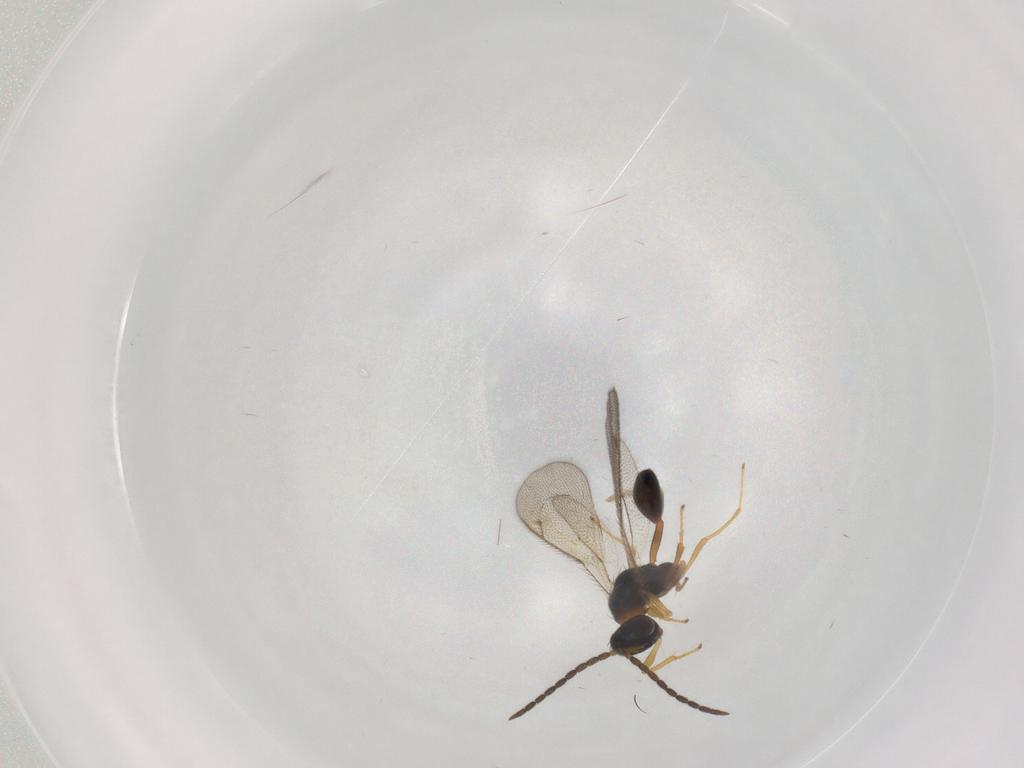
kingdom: Animalia
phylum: Arthropoda
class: Insecta
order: Hymenoptera
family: Diparidae
